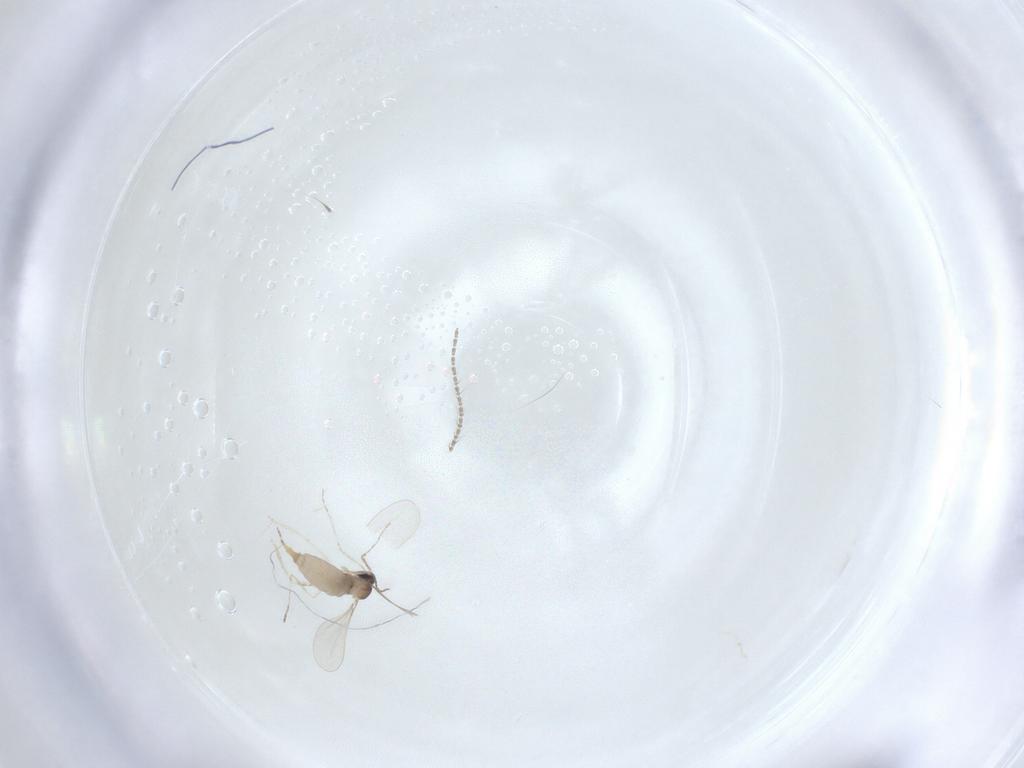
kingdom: Animalia
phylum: Arthropoda
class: Insecta
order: Diptera
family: Sciaridae
